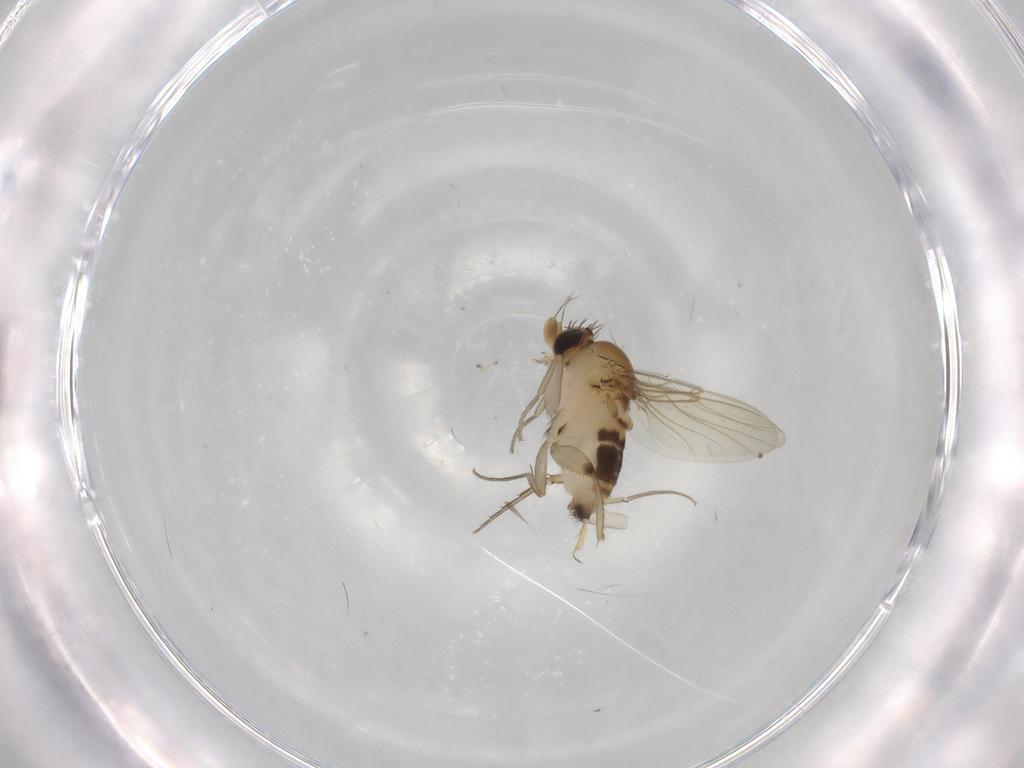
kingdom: Animalia
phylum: Arthropoda
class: Insecta
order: Diptera
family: Phoridae
